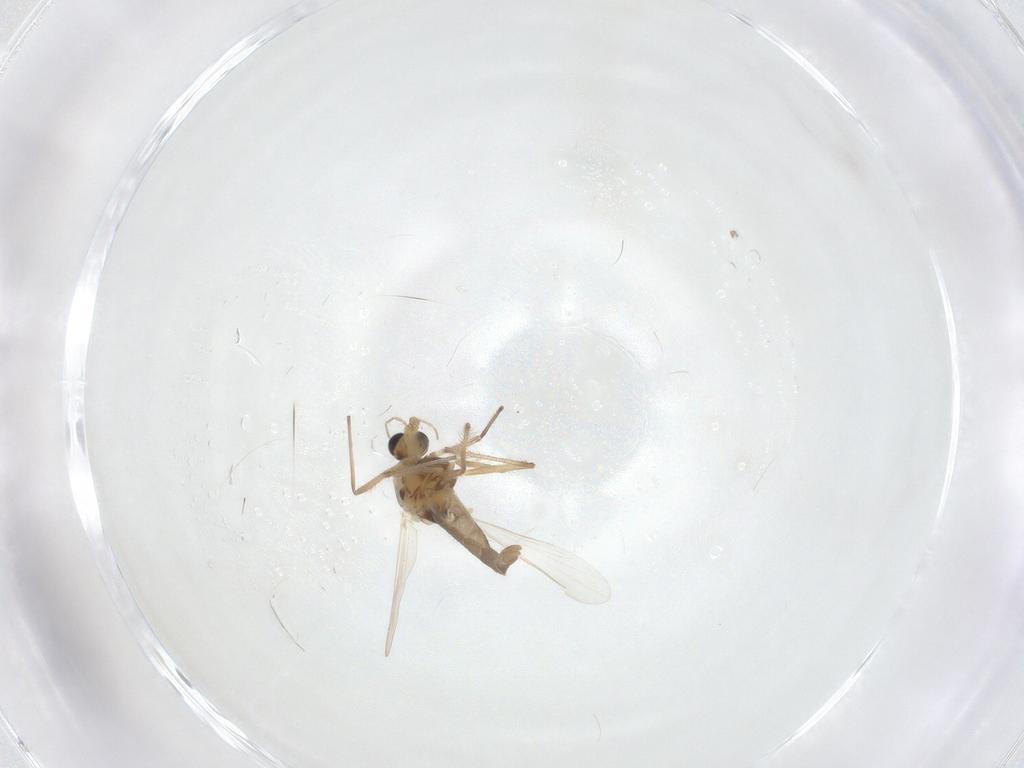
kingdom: Animalia
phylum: Arthropoda
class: Insecta
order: Diptera
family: Chironomidae
